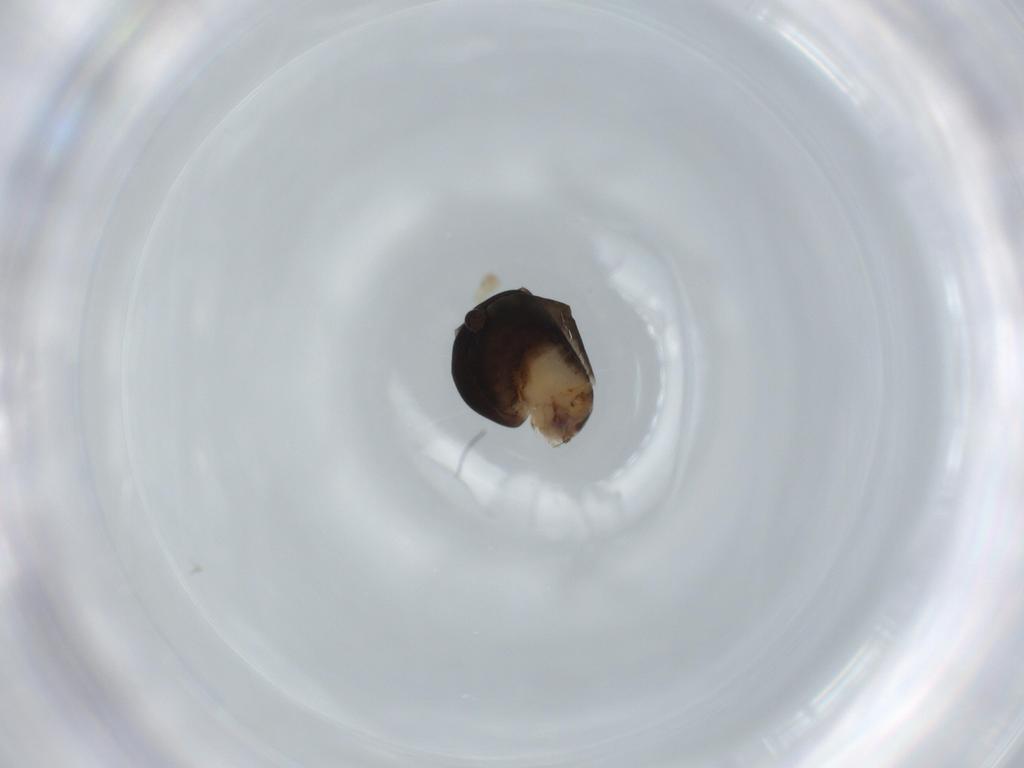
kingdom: Animalia
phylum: Arthropoda
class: Insecta
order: Hymenoptera
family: Dryinidae
